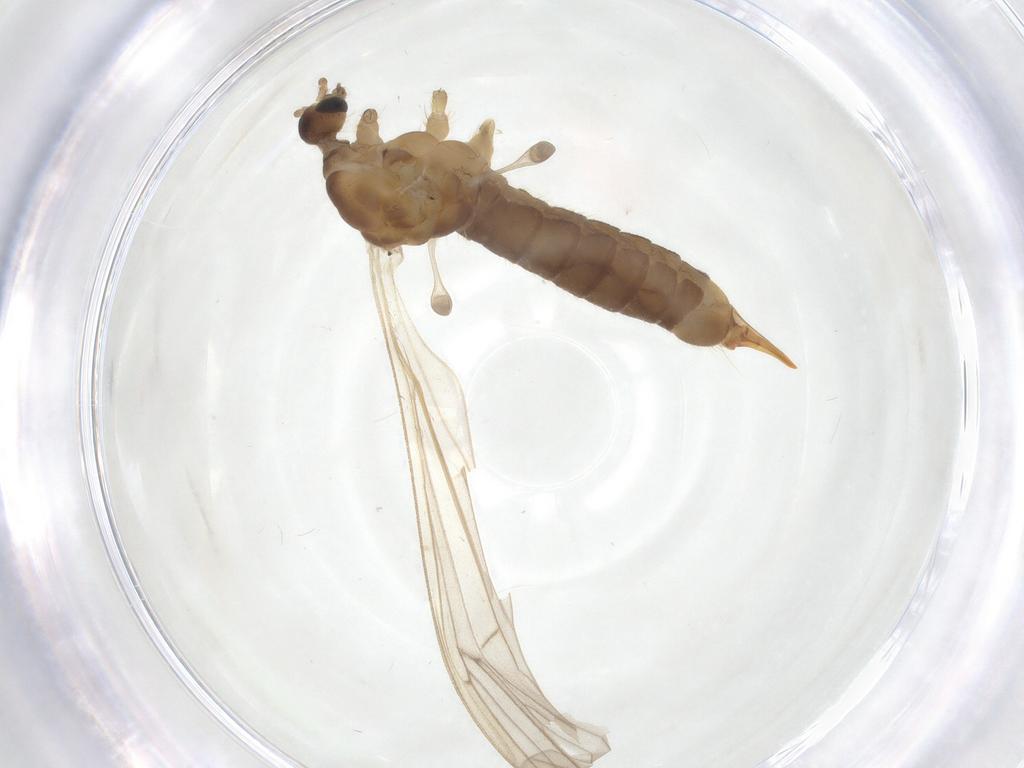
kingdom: Animalia
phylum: Arthropoda
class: Insecta
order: Diptera
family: Limoniidae
